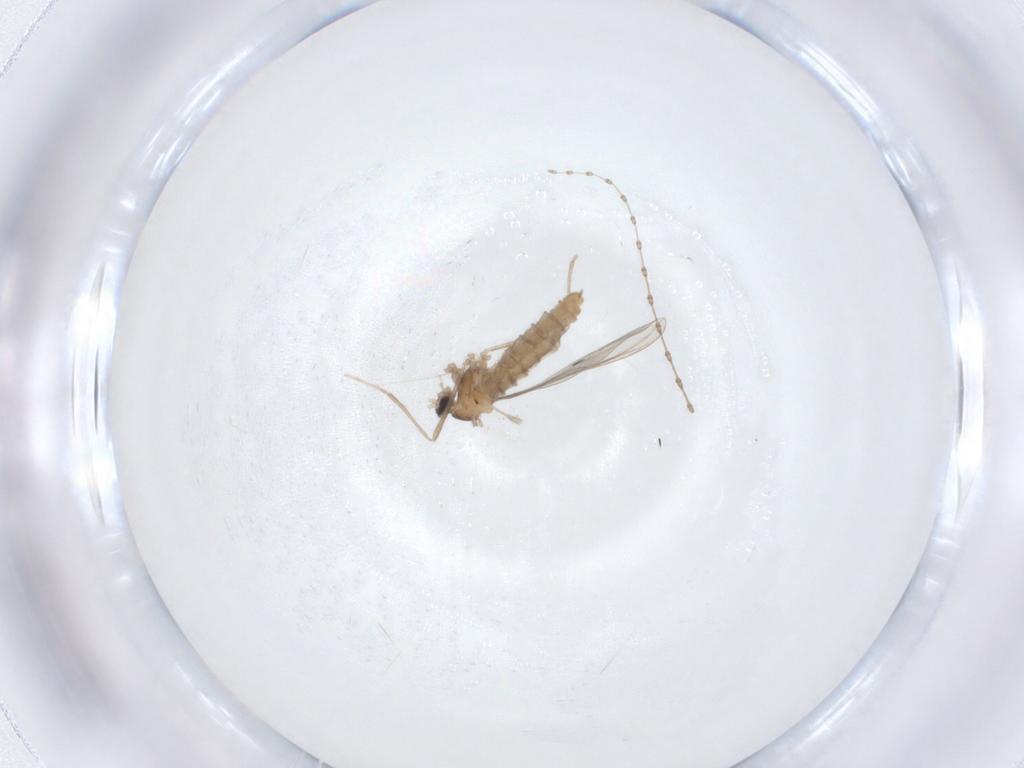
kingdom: Animalia
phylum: Arthropoda
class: Insecta
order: Diptera
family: Cecidomyiidae
